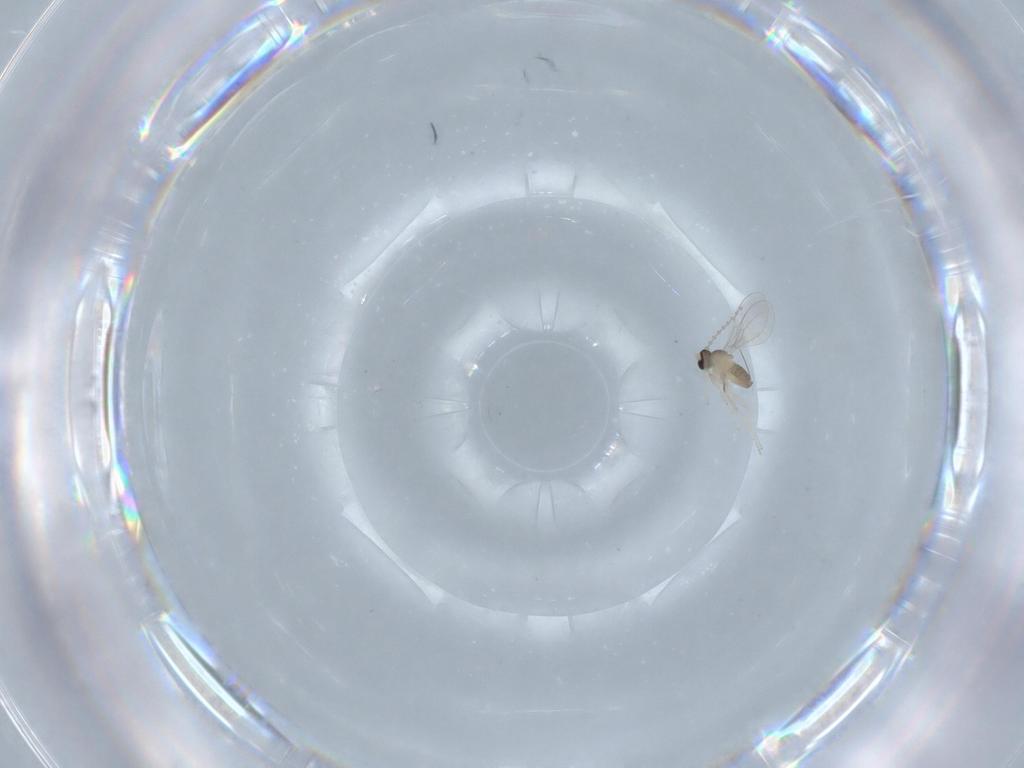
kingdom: Animalia
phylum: Arthropoda
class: Insecta
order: Diptera
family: Cecidomyiidae
